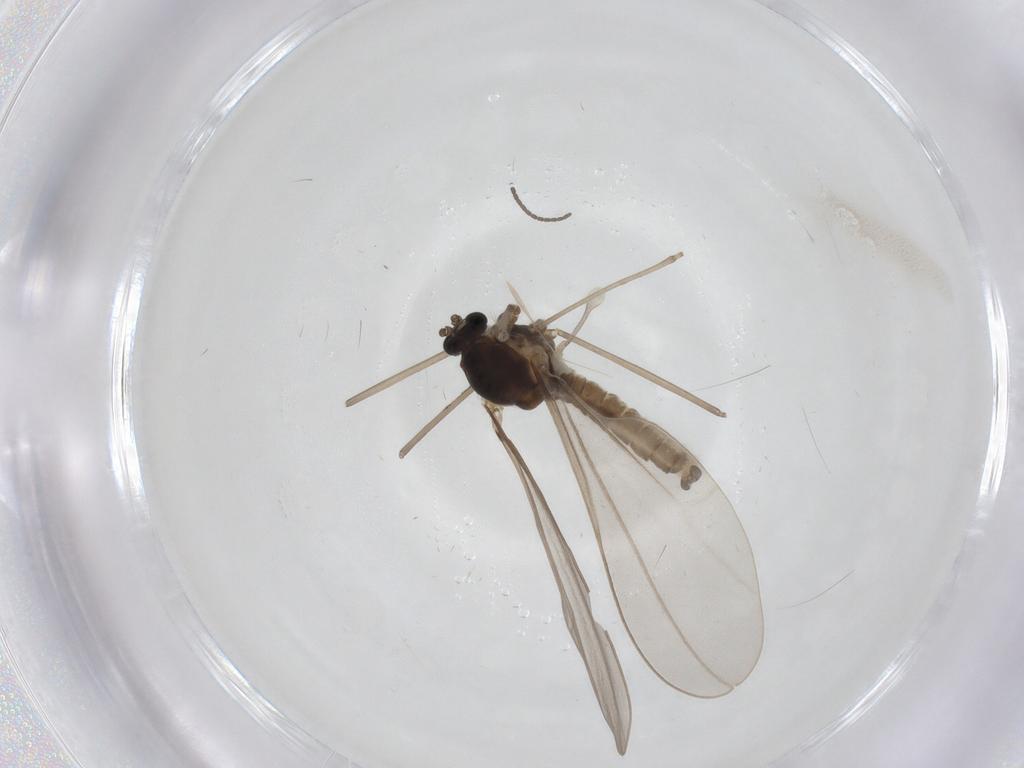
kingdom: Animalia
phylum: Arthropoda
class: Insecta
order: Diptera
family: Cecidomyiidae
